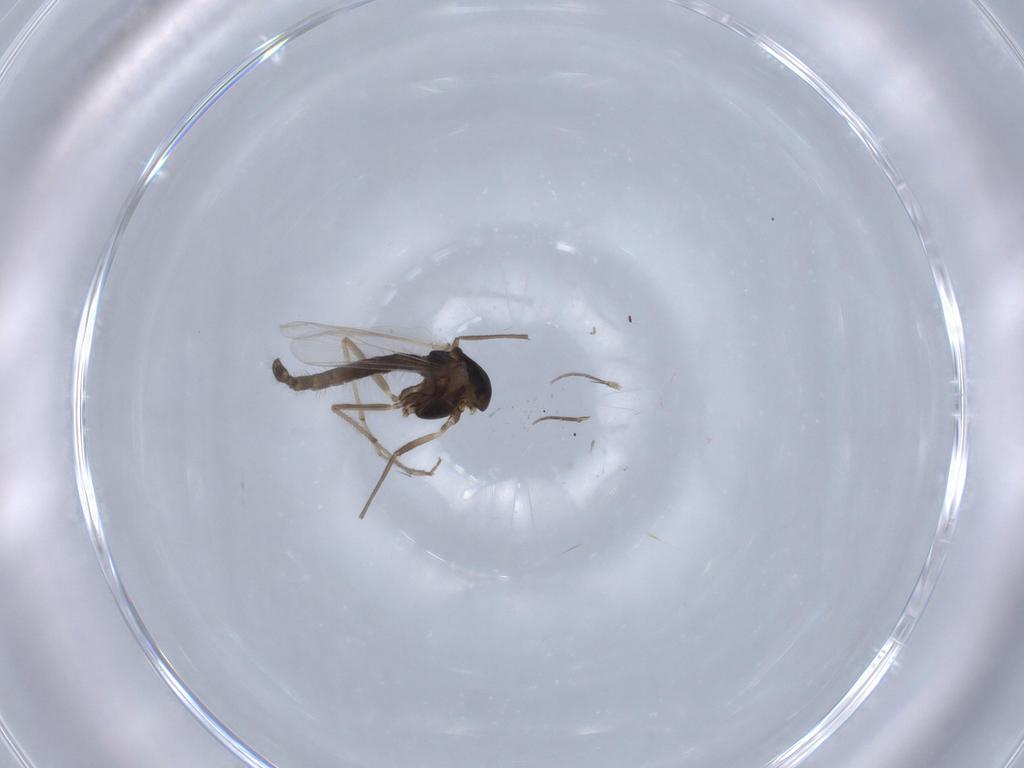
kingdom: Animalia
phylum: Arthropoda
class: Insecta
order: Diptera
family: Chironomidae
